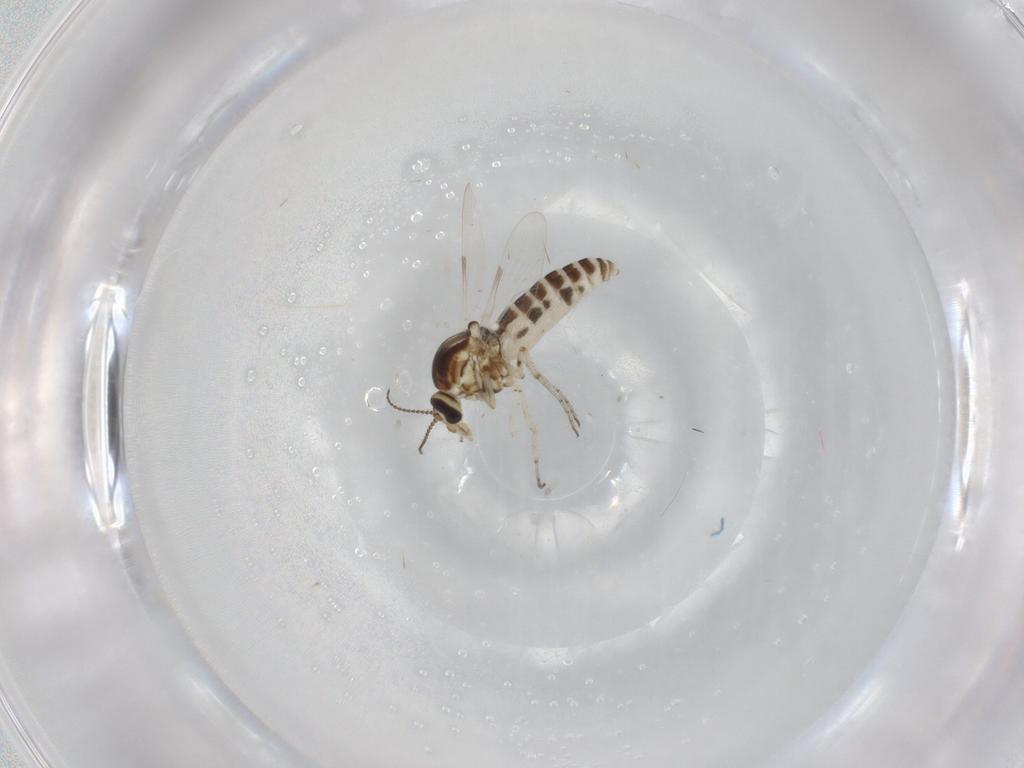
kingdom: Animalia
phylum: Arthropoda
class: Insecta
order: Diptera
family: Ceratopogonidae
